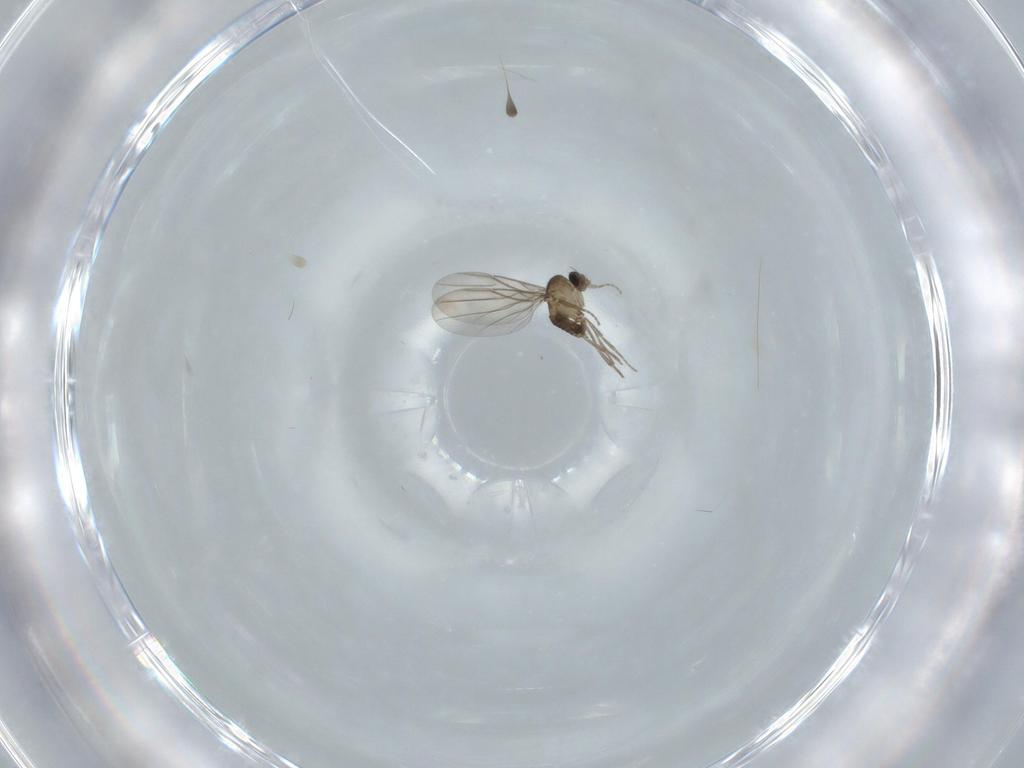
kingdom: Animalia
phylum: Arthropoda
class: Insecta
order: Diptera
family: Phoridae
